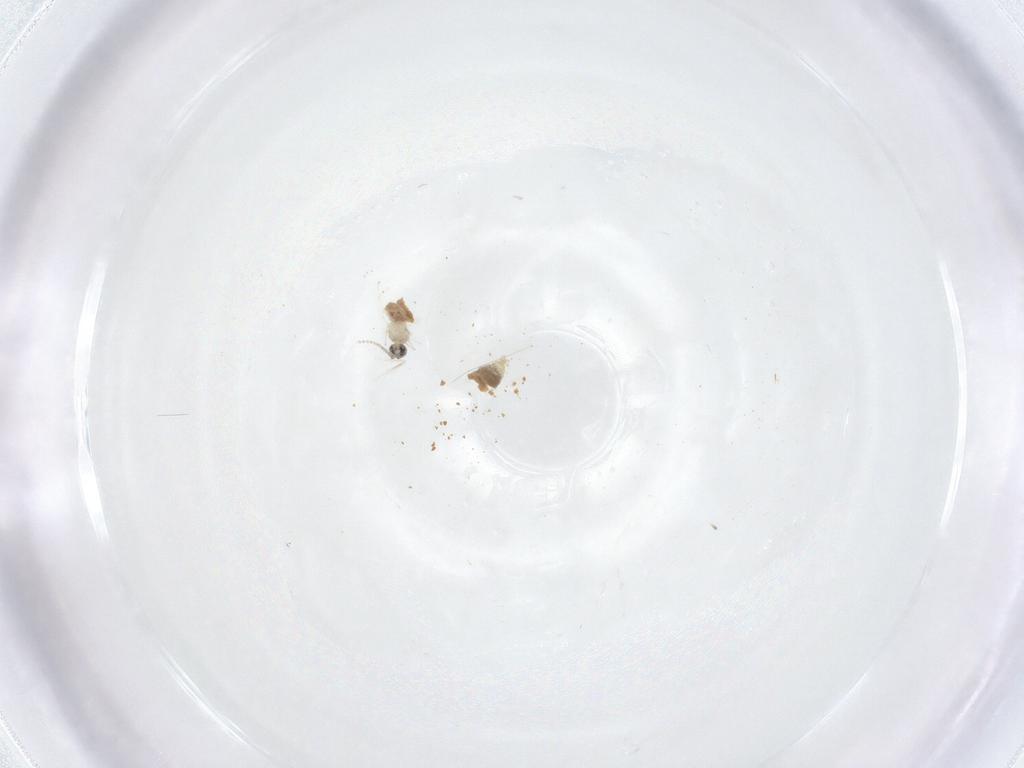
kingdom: Animalia
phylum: Arthropoda
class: Insecta
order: Diptera
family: Cecidomyiidae
